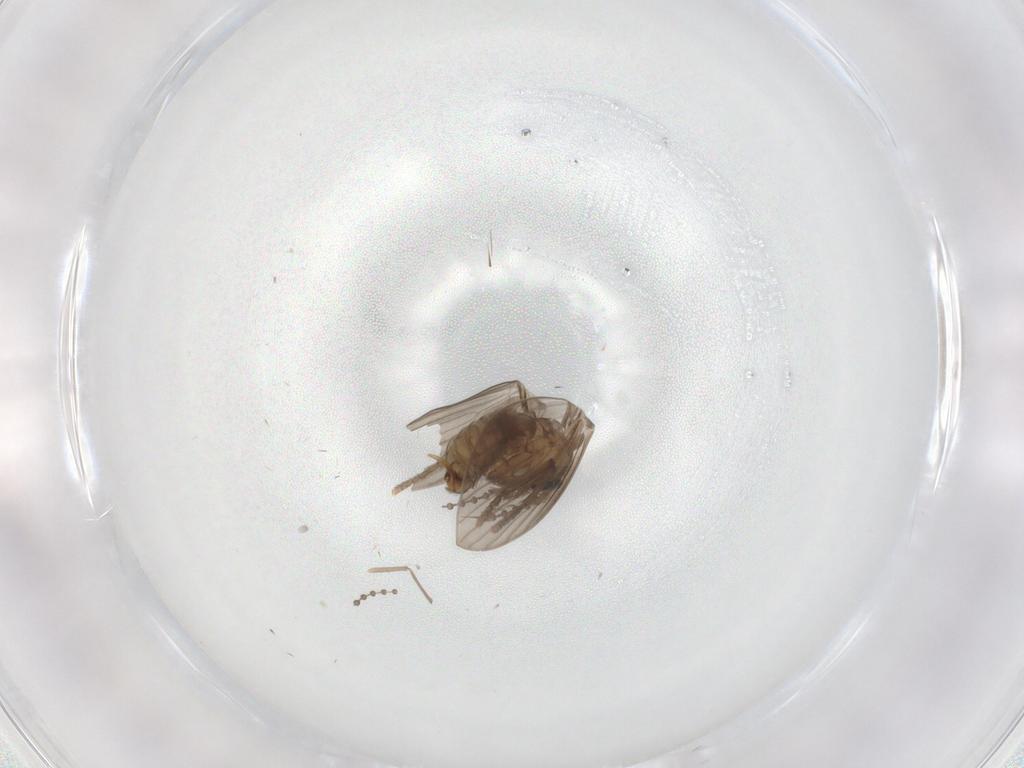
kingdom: Animalia
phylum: Arthropoda
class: Insecta
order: Diptera
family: Psychodidae
